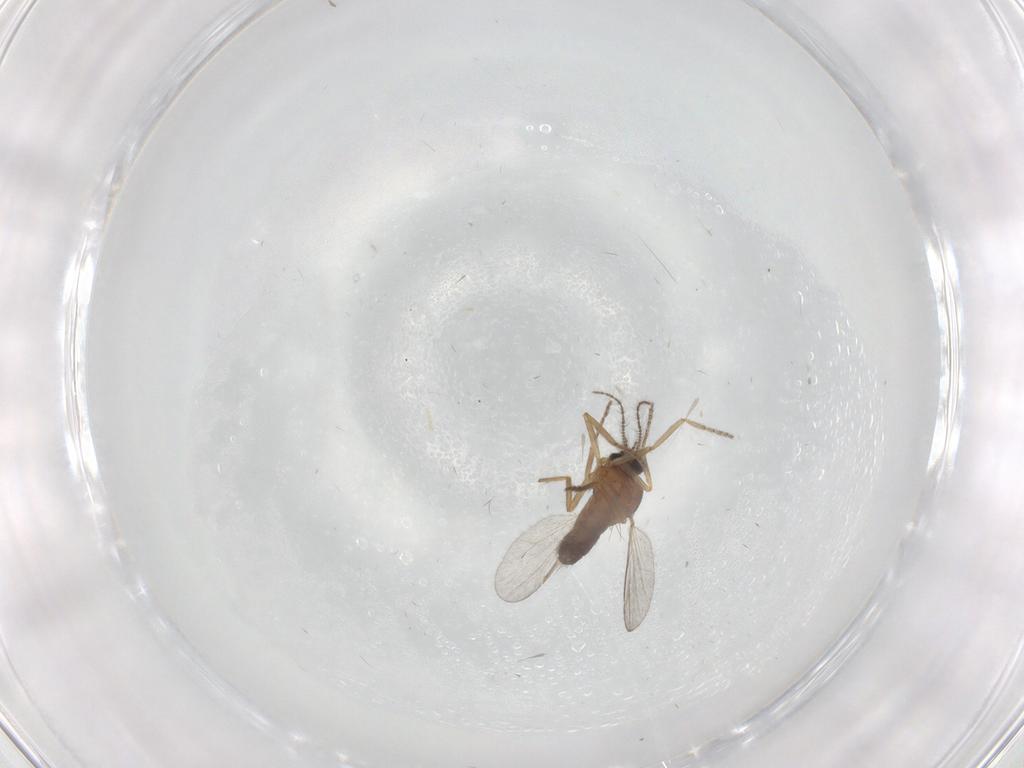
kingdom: Animalia
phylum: Arthropoda
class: Insecta
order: Diptera
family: Ceratopogonidae
